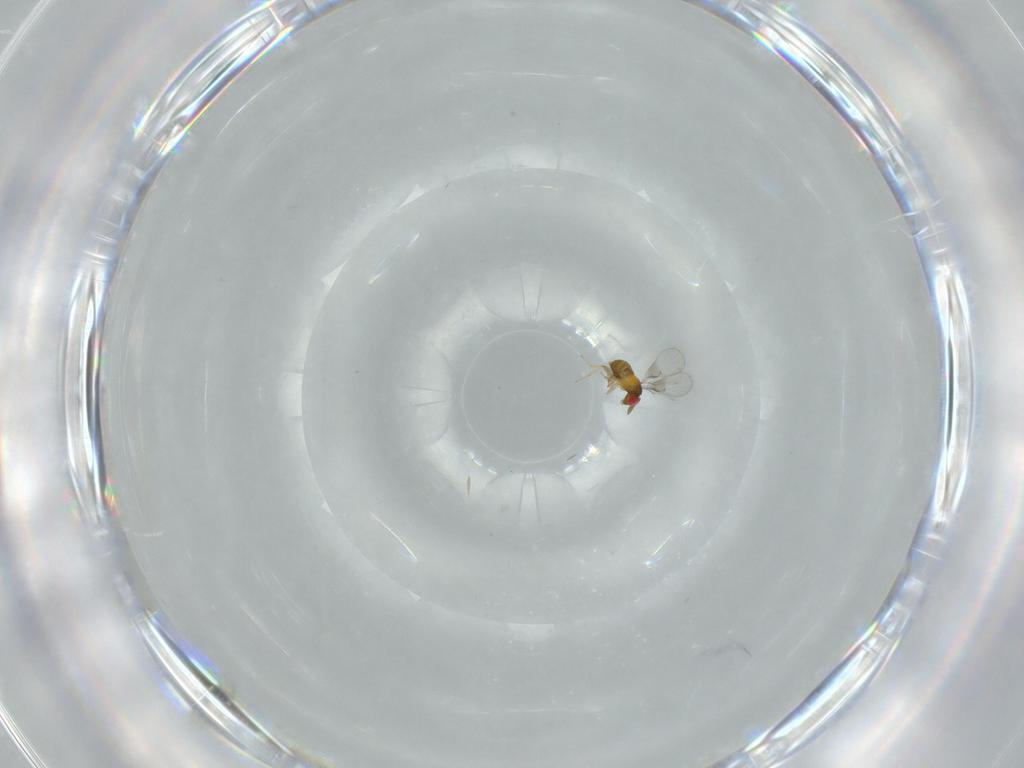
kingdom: Animalia
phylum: Arthropoda
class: Insecta
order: Hymenoptera
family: Trichogrammatidae
